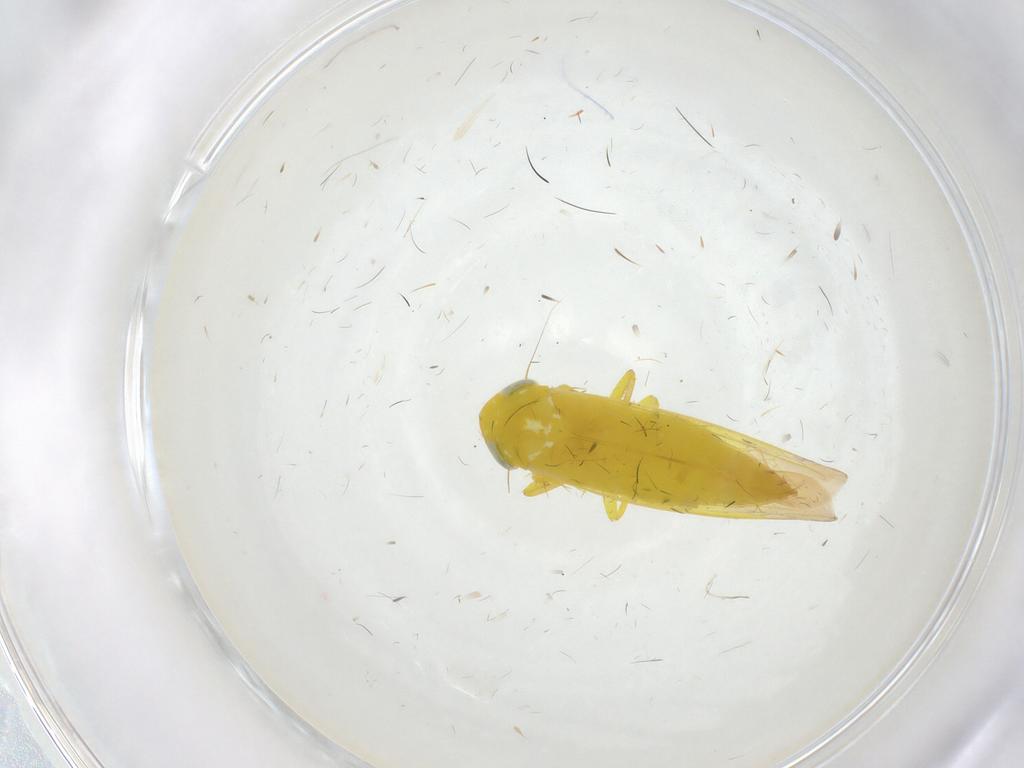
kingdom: Animalia
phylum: Arthropoda
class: Insecta
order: Hemiptera
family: Cicadellidae
